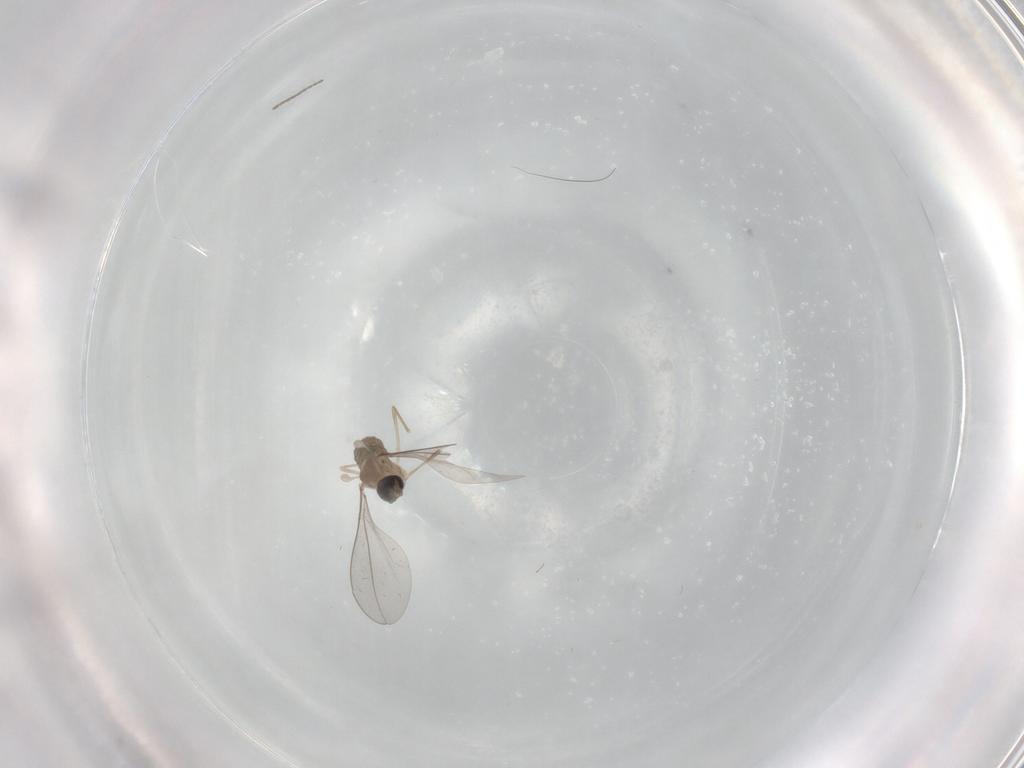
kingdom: Animalia
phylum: Arthropoda
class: Insecta
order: Diptera
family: Cecidomyiidae
